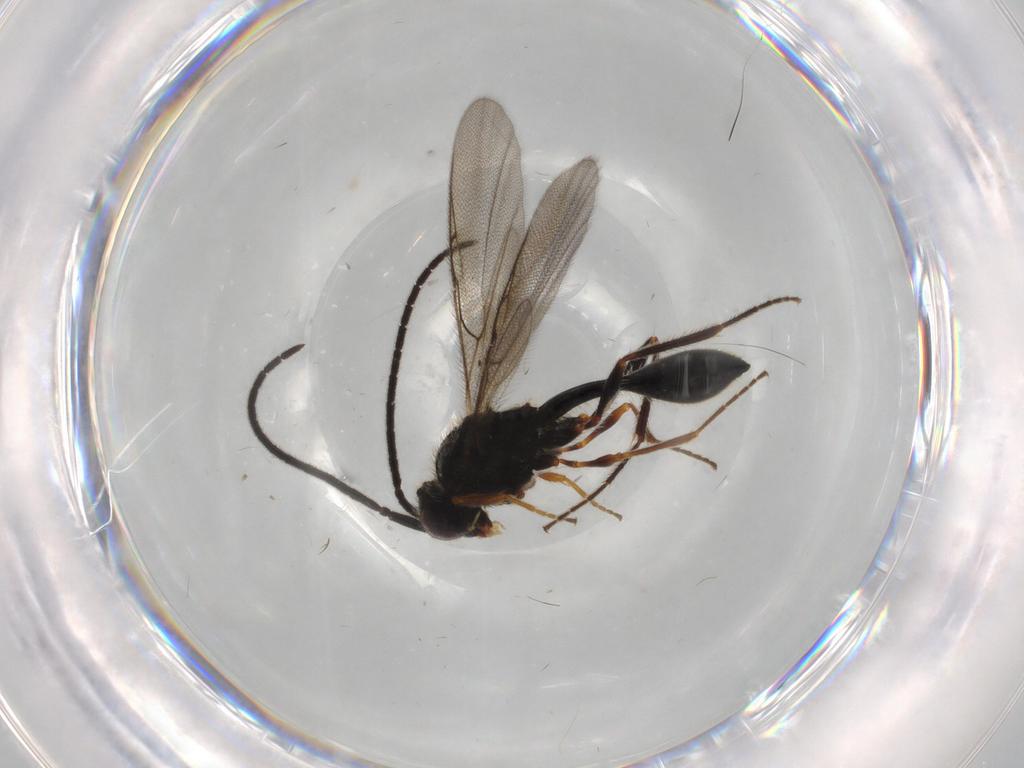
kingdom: Animalia
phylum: Arthropoda
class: Insecta
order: Hymenoptera
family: Diapriidae
